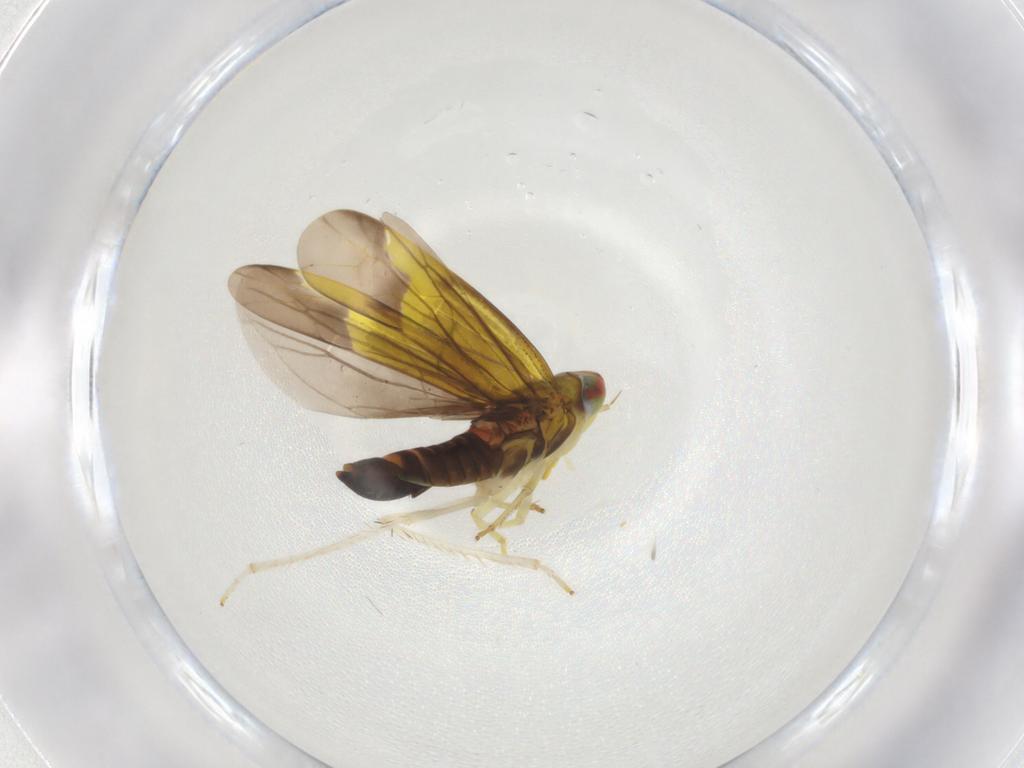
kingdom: Animalia
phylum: Arthropoda
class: Insecta
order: Hemiptera
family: Cicadellidae
